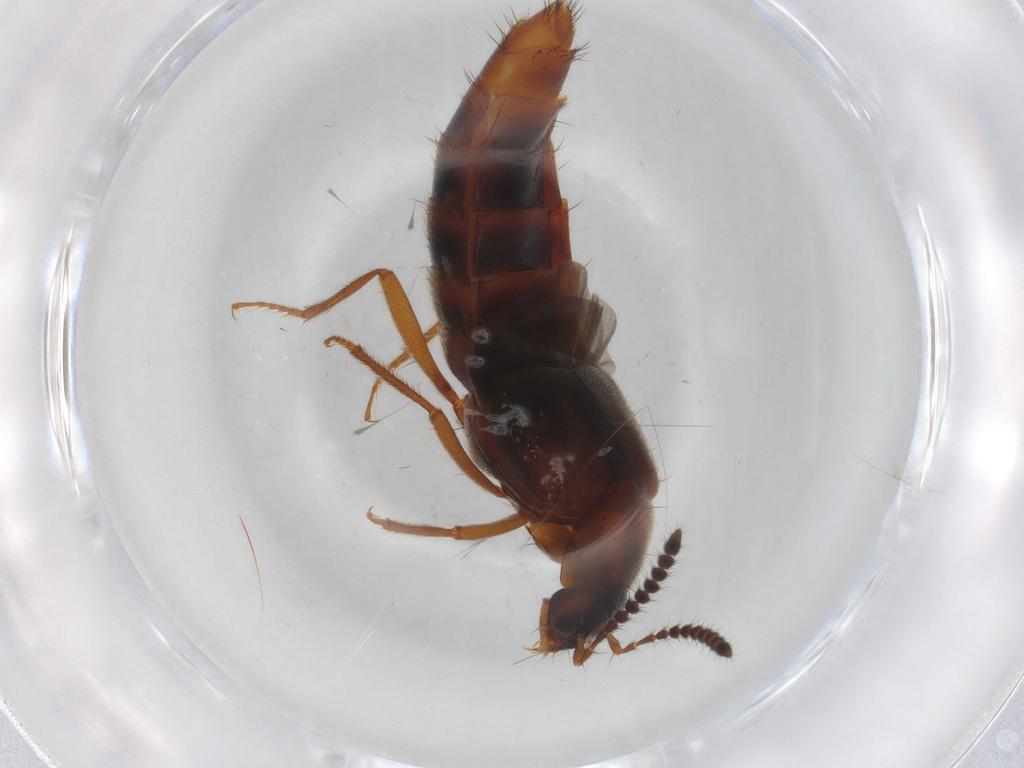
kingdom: Animalia
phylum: Arthropoda
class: Insecta
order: Coleoptera
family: Staphylinidae
